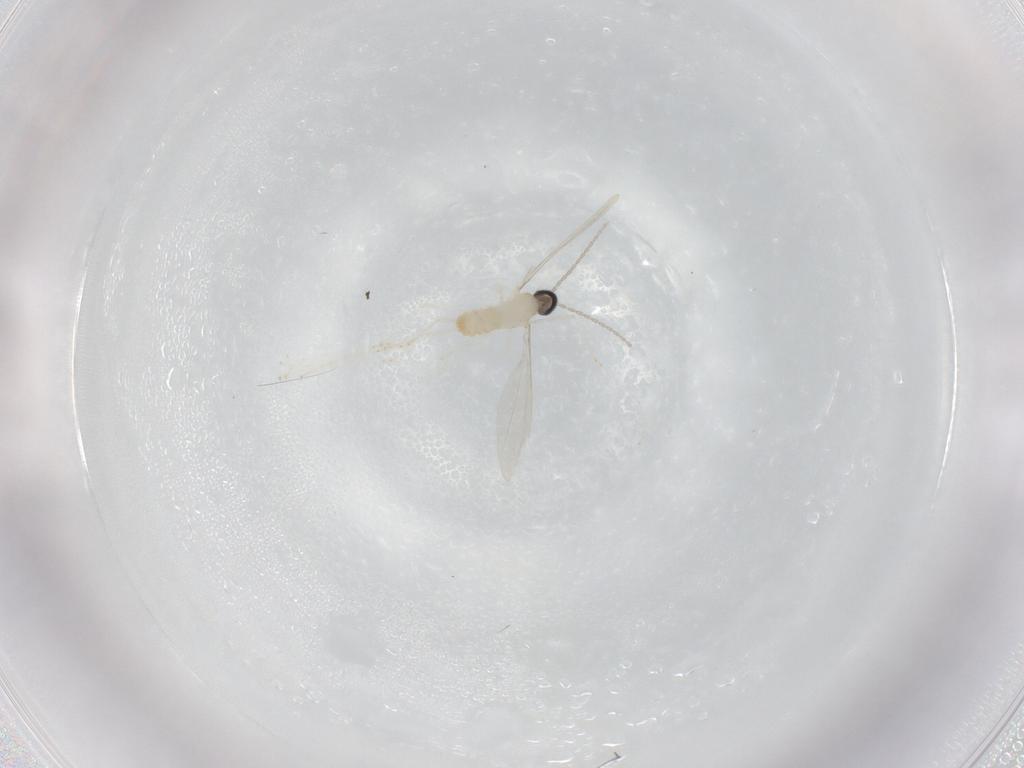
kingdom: Animalia
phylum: Arthropoda
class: Insecta
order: Diptera
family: Cecidomyiidae
